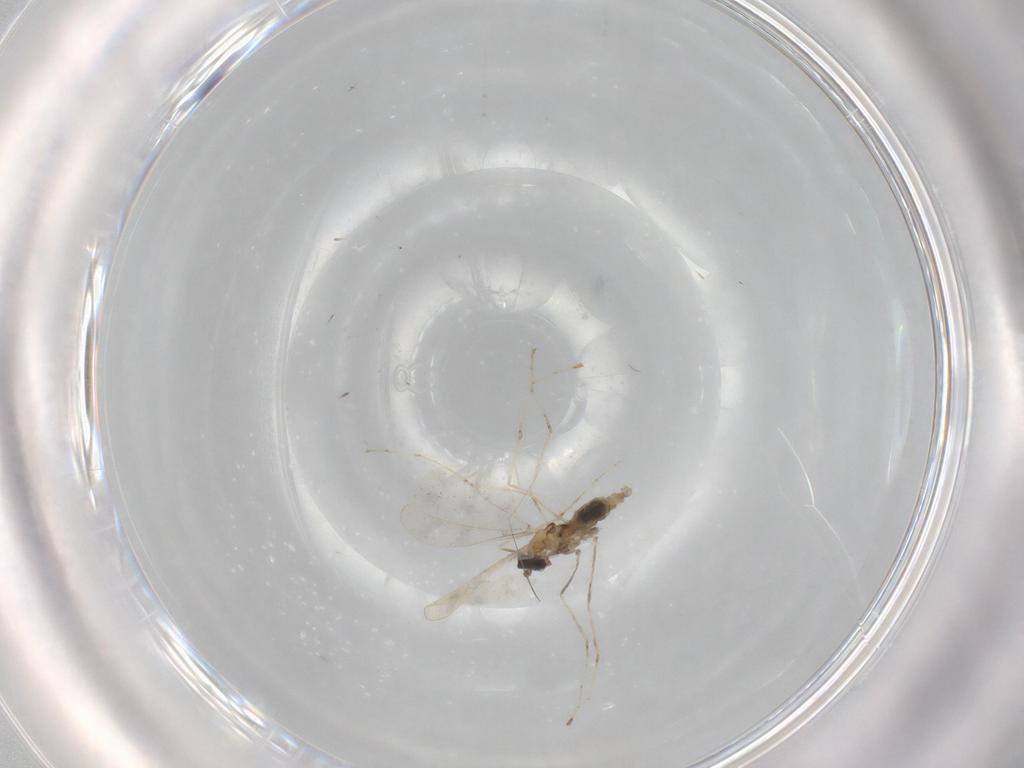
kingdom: Animalia
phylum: Arthropoda
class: Insecta
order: Diptera
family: Cecidomyiidae
